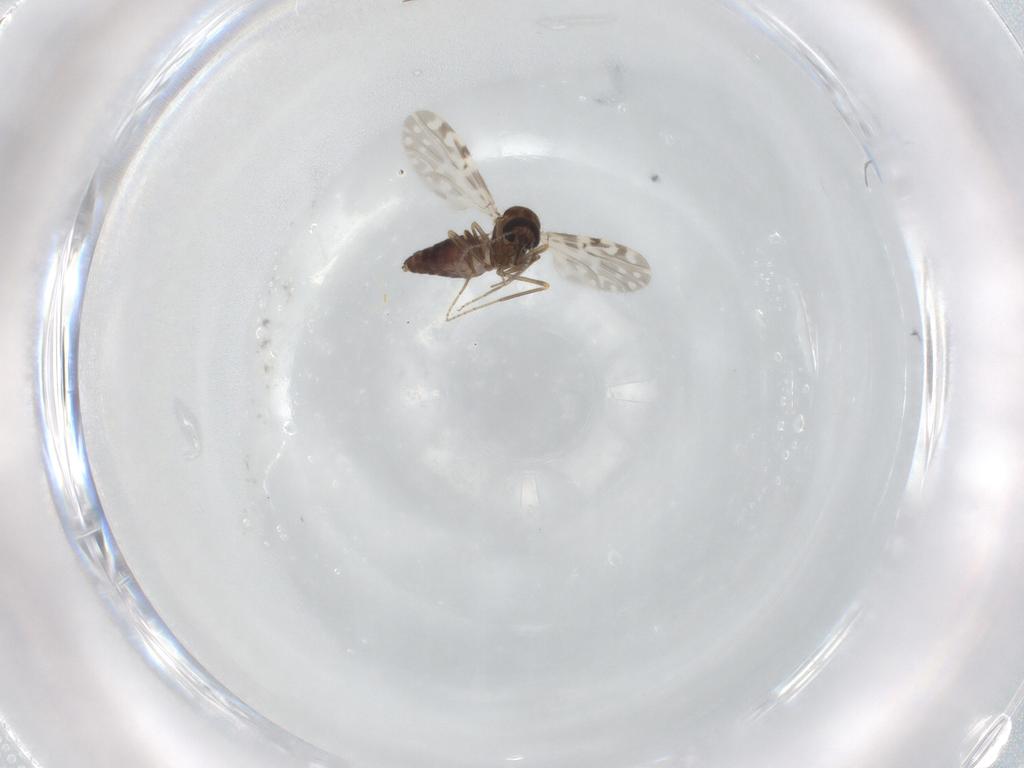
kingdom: Animalia
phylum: Arthropoda
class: Insecta
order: Diptera
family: Ceratopogonidae
